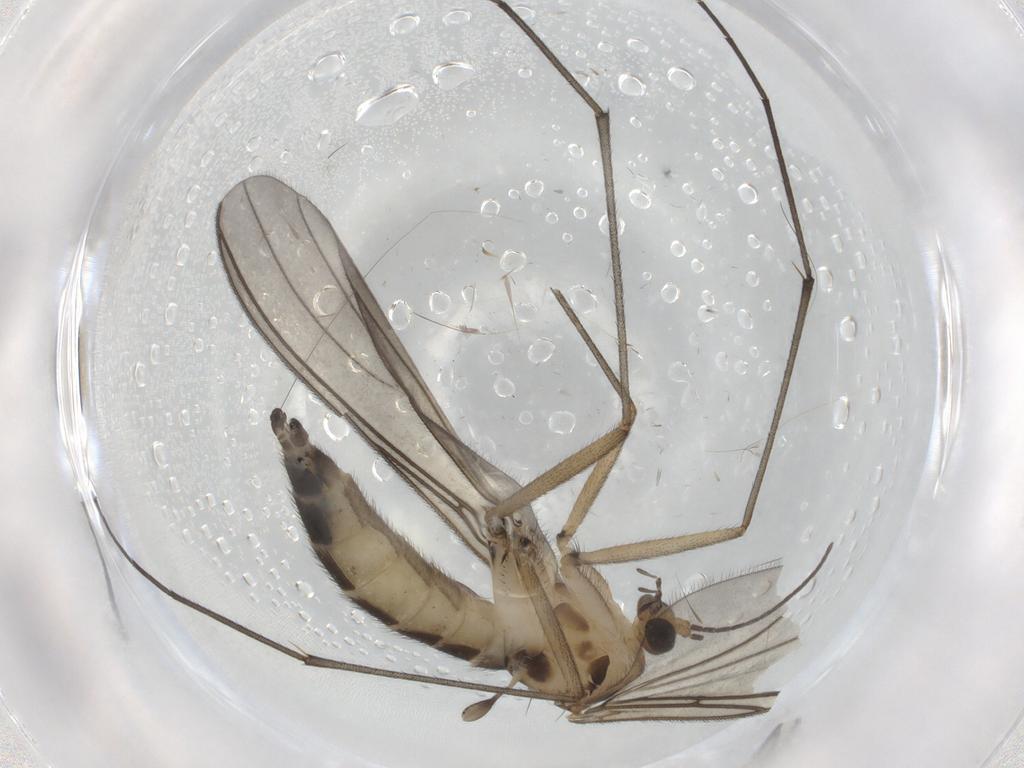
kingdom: Animalia
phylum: Arthropoda
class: Insecta
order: Diptera
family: Sciaridae
